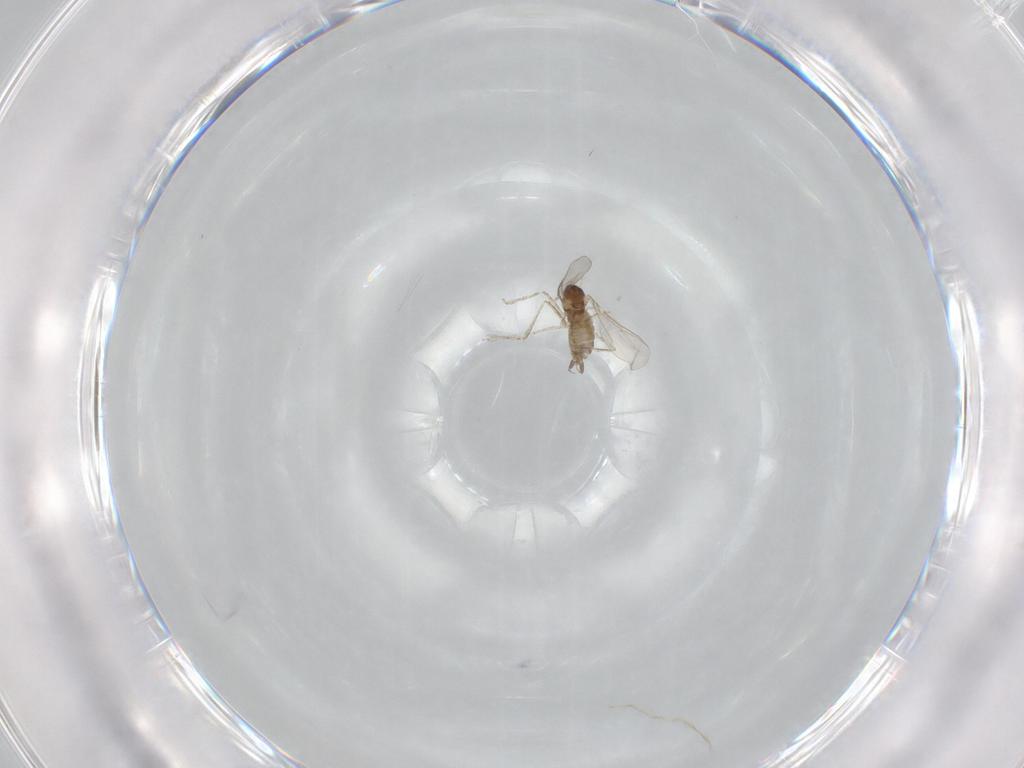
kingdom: Animalia
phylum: Arthropoda
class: Insecta
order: Diptera
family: Cecidomyiidae
